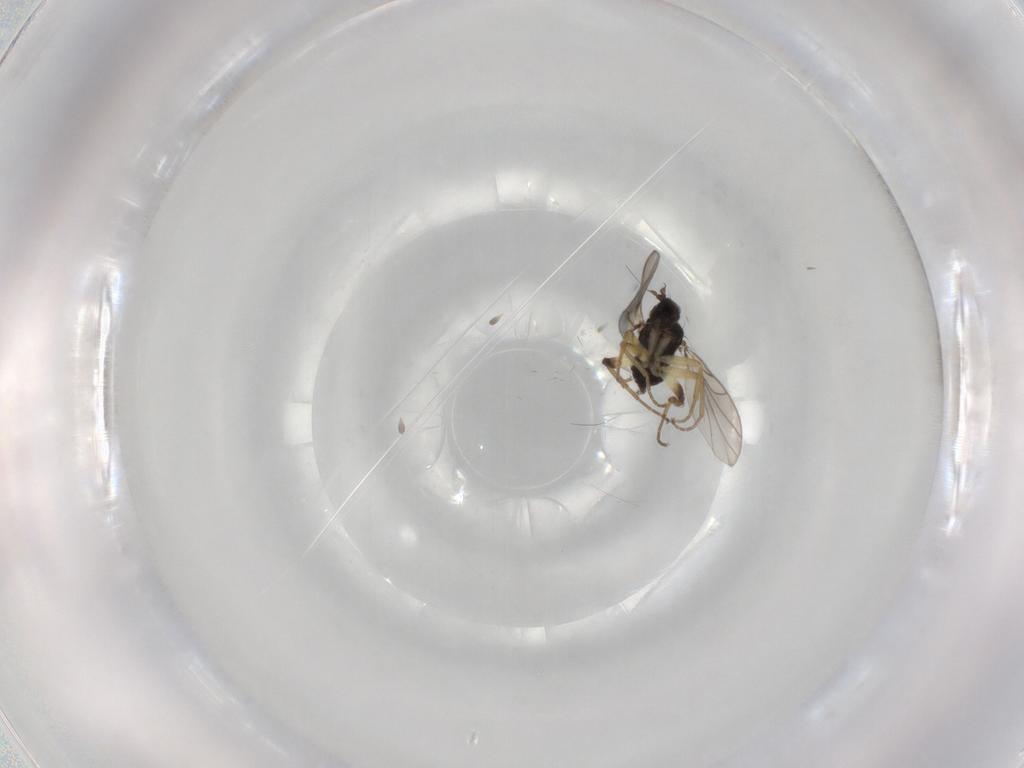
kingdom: Animalia
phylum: Arthropoda
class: Insecta
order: Diptera
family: Hybotidae
